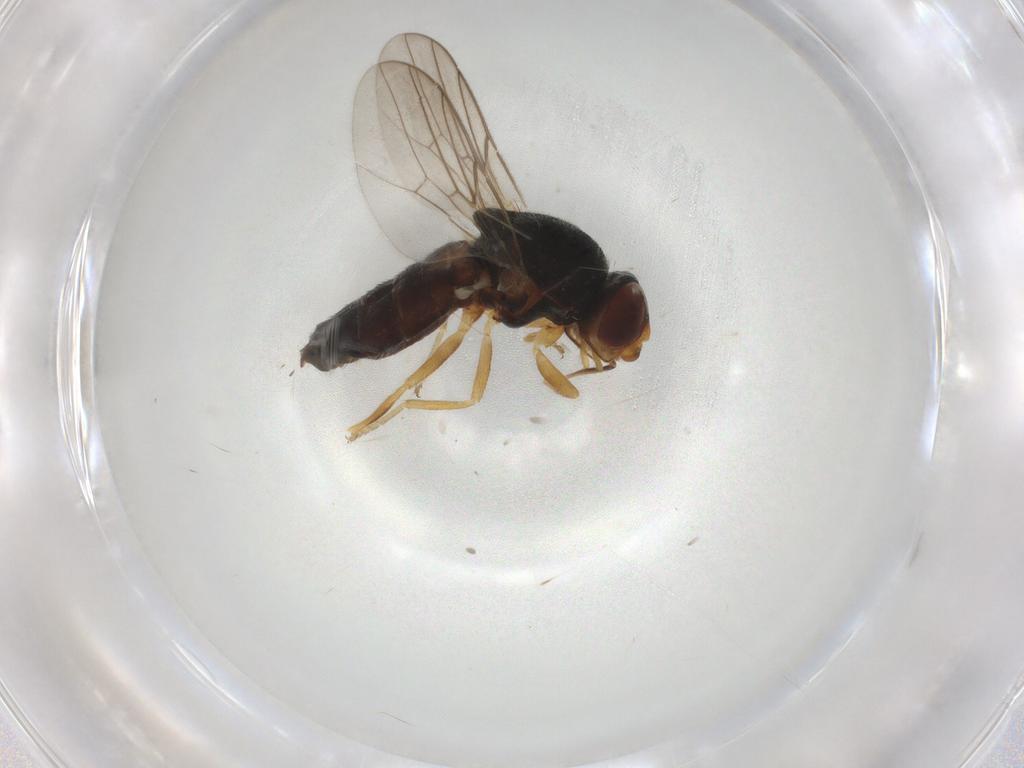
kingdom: Animalia
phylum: Arthropoda
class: Insecta
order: Diptera
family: Chloropidae
